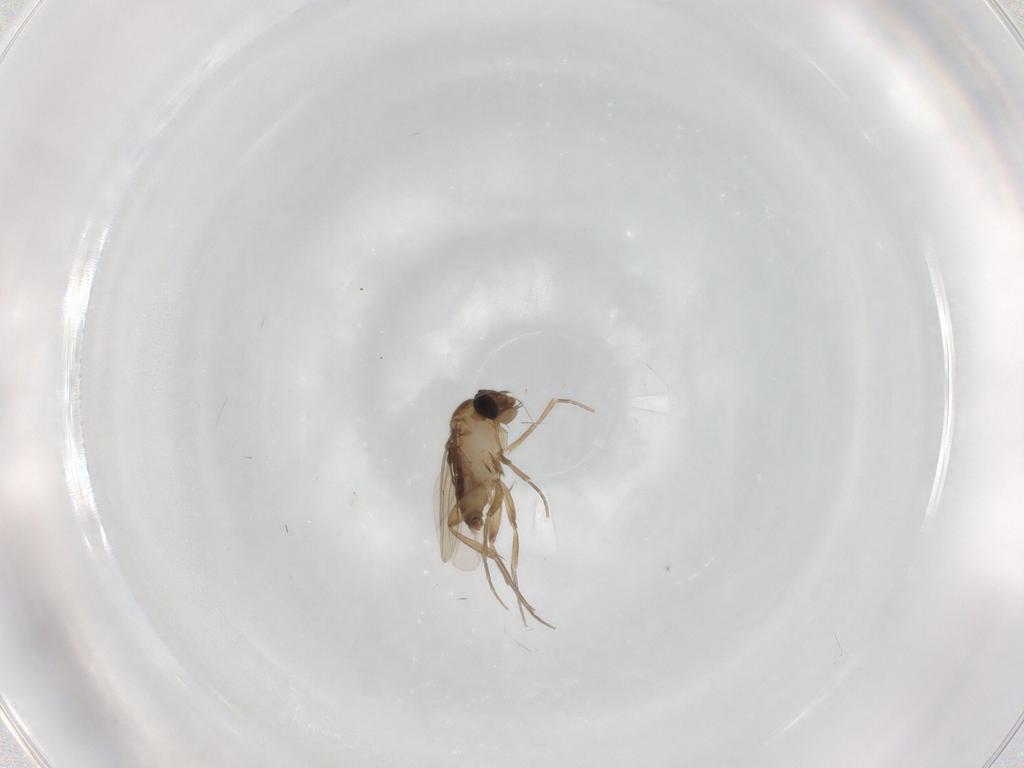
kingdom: Animalia
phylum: Arthropoda
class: Insecta
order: Diptera
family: Phoridae
